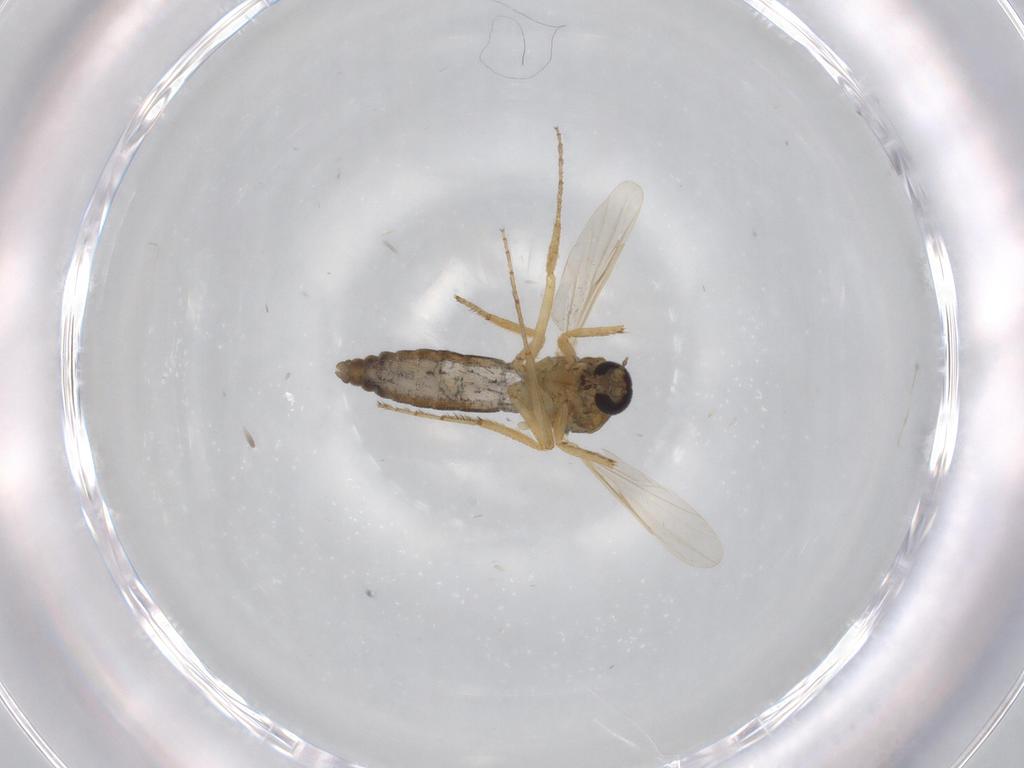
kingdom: Animalia
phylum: Arthropoda
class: Insecta
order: Diptera
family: Ceratopogonidae
